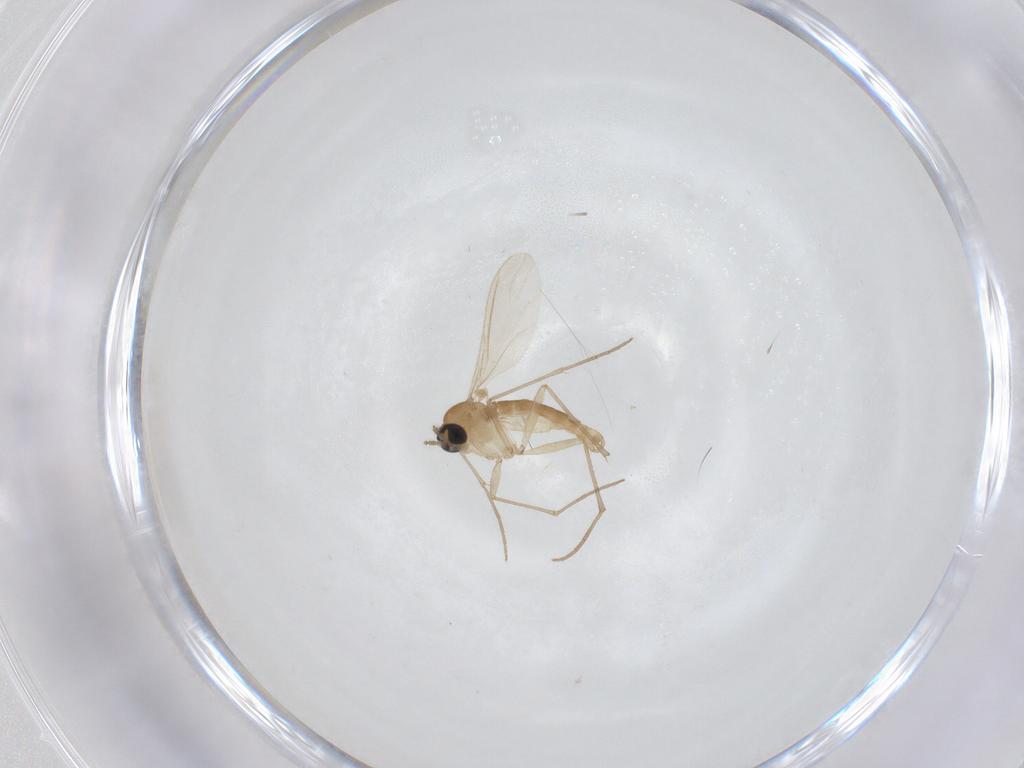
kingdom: Animalia
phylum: Arthropoda
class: Insecta
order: Diptera
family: Sciaridae
